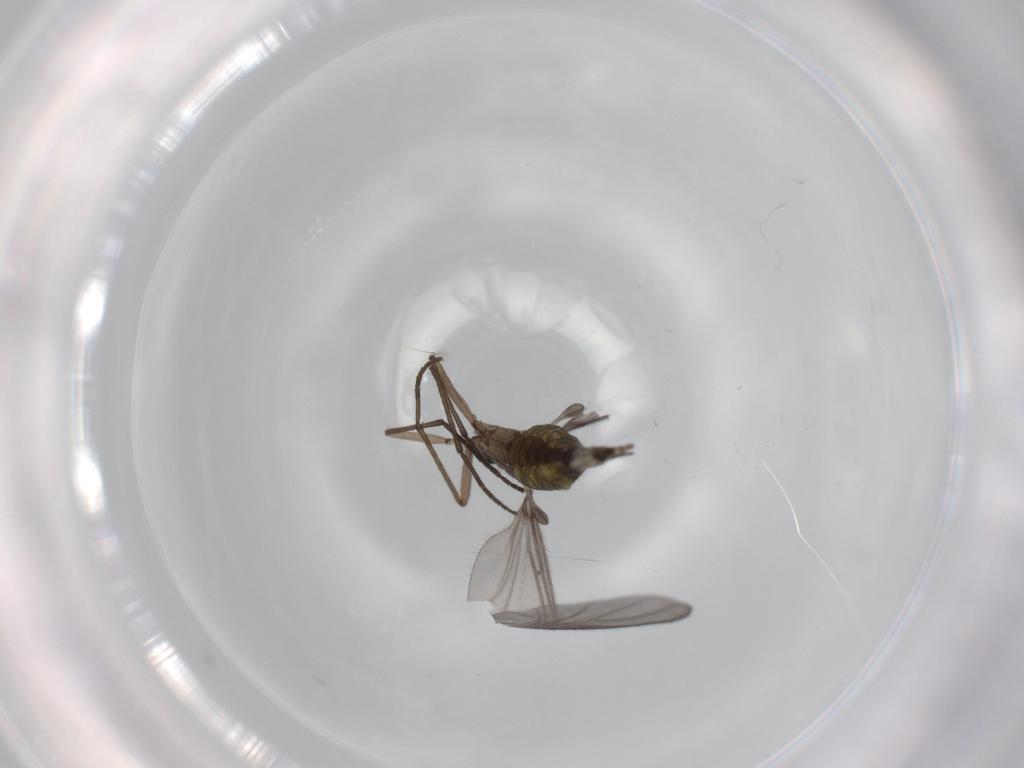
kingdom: Animalia
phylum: Arthropoda
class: Insecta
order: Diptera
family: Sciaridae
